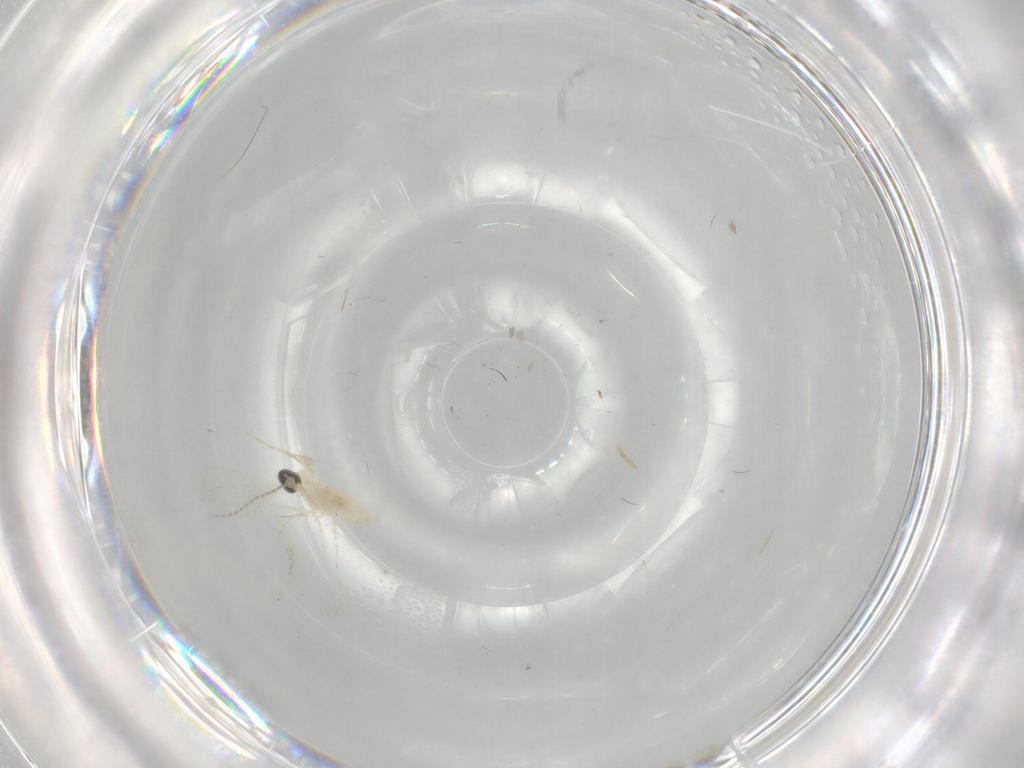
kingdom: Animalia
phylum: Arthropoda
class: Insecta
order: Diptera
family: Cecidomyiidae
